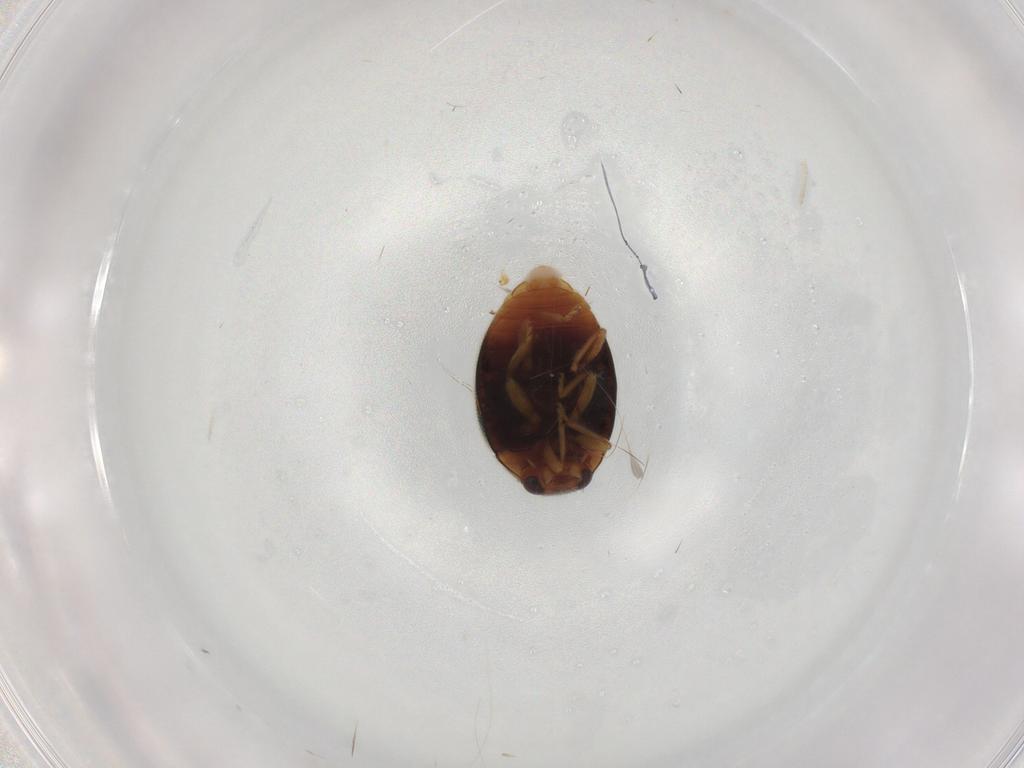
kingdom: Animalia
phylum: Arthropoda
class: Insecta
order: Coleoptera
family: Coccinellidae
